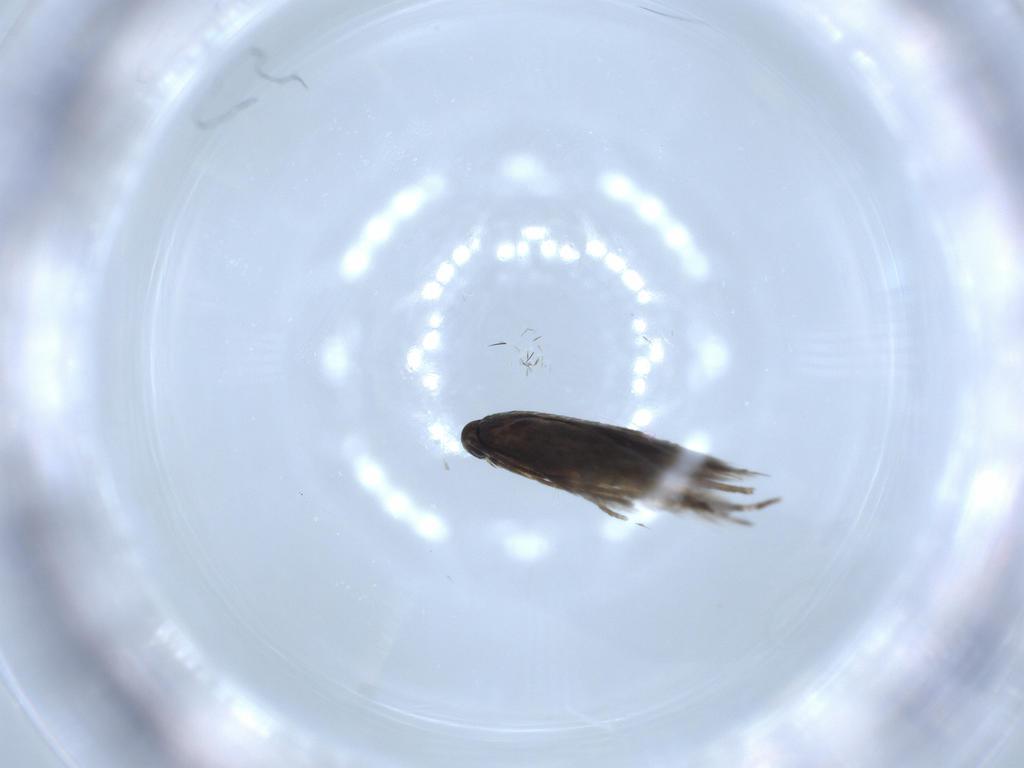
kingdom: Animalia
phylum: Arthropoda
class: Insecta
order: Lepidoptera
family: Heliozelidae
